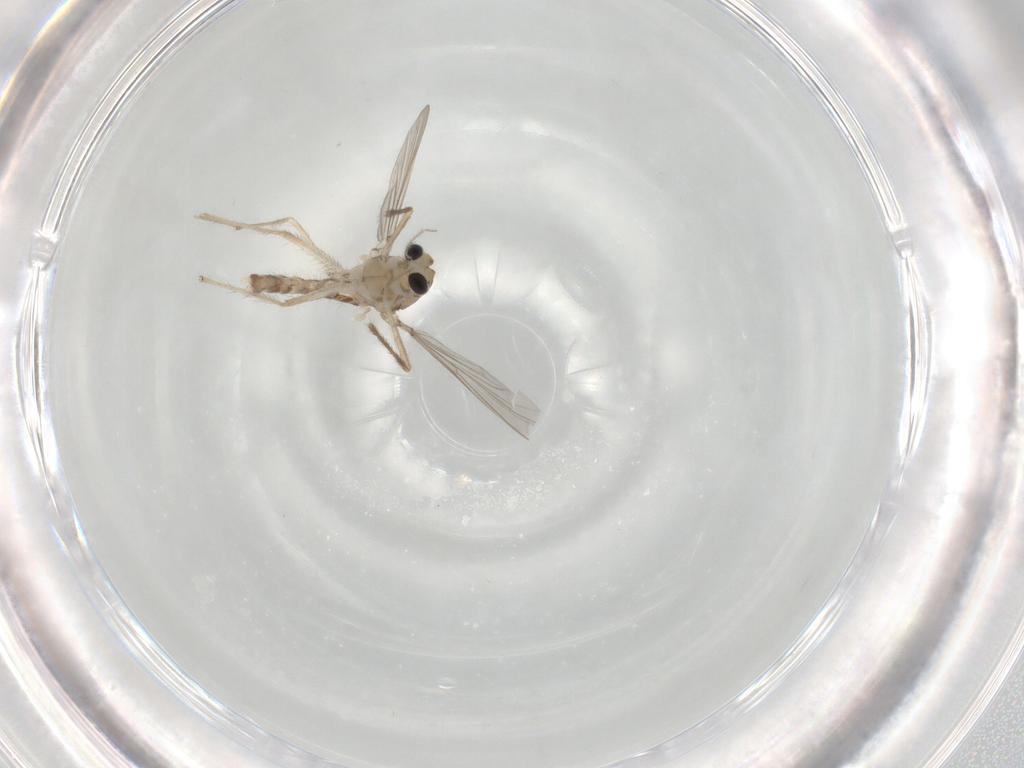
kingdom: Animalia
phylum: Arthropoda
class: Insecta
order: Diptera
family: Chironomidae
